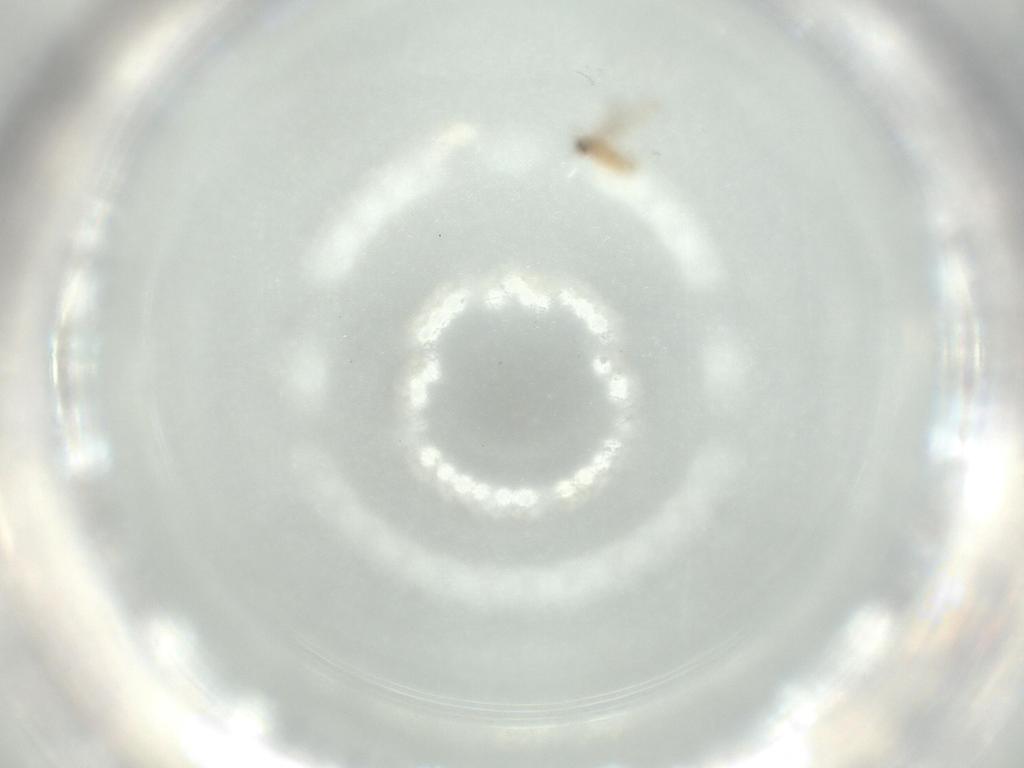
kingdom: Animalia
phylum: Arthropoda
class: Insecta
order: Diptera
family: Cecidomyiidae
